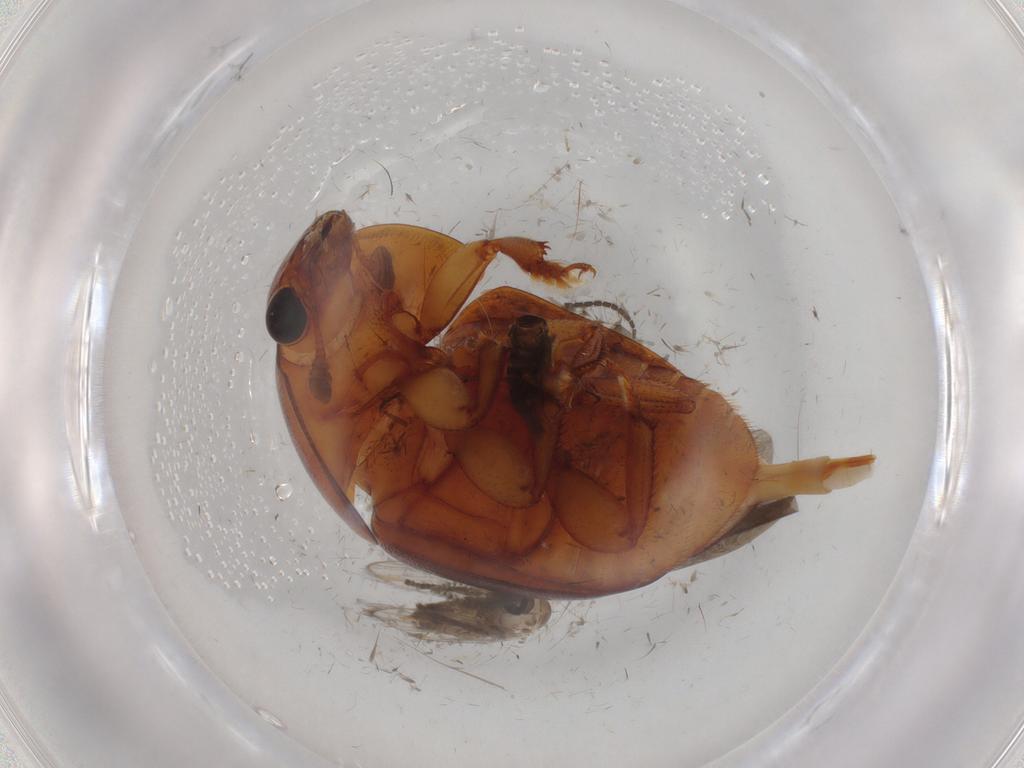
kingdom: Animalia
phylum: Arthropoda
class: Insecta
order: Coleoptera
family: Nitidulidae
